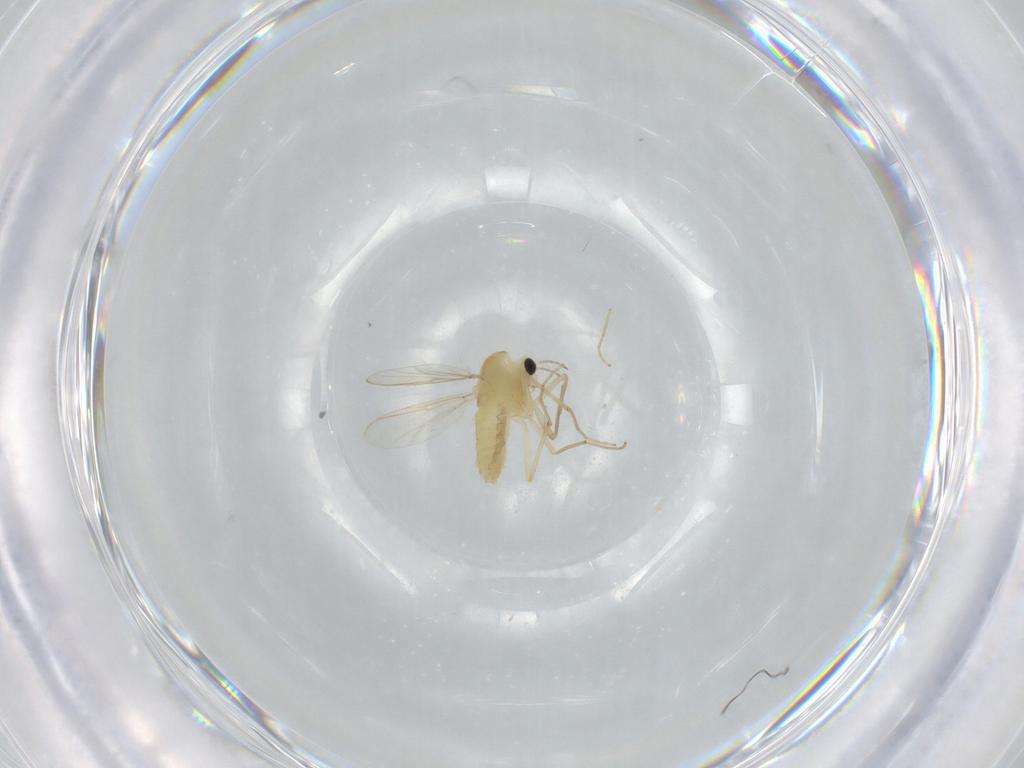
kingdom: Animalia
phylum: Arthropoda
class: Insecta
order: Diptera
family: Chironomidae
